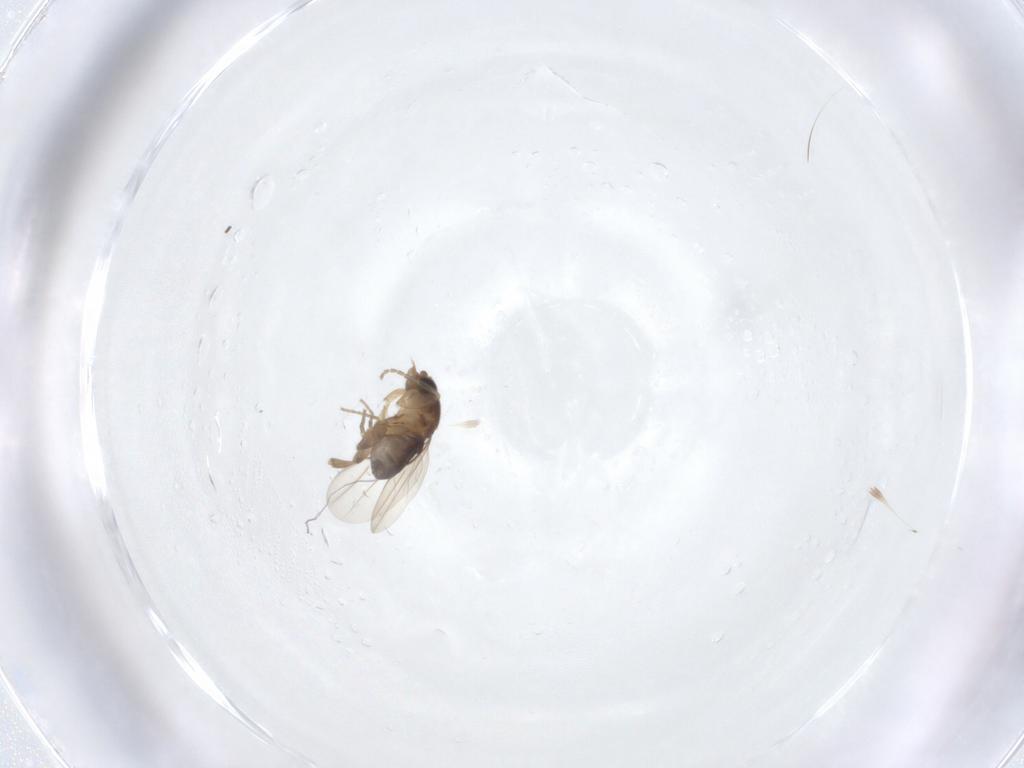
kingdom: Animalia
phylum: Arthropoda
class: Insecta
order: Diptera
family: Phoridae
